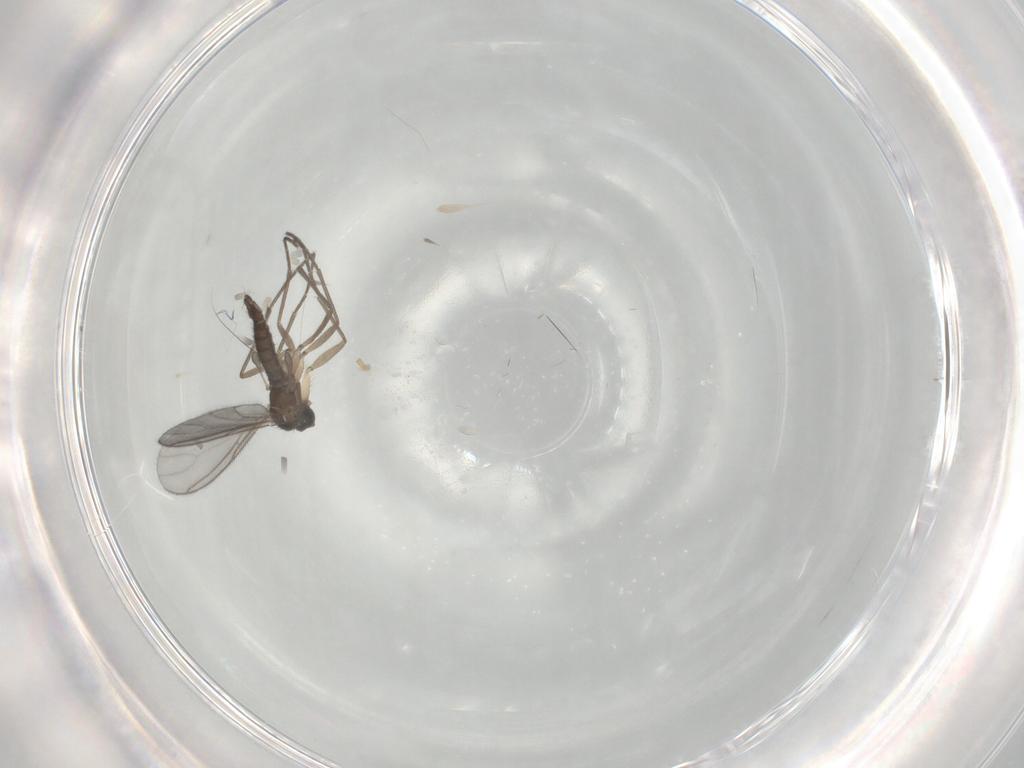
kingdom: Animalia
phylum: Arthropoda
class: Insecta
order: Diptera
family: Sciaridae
